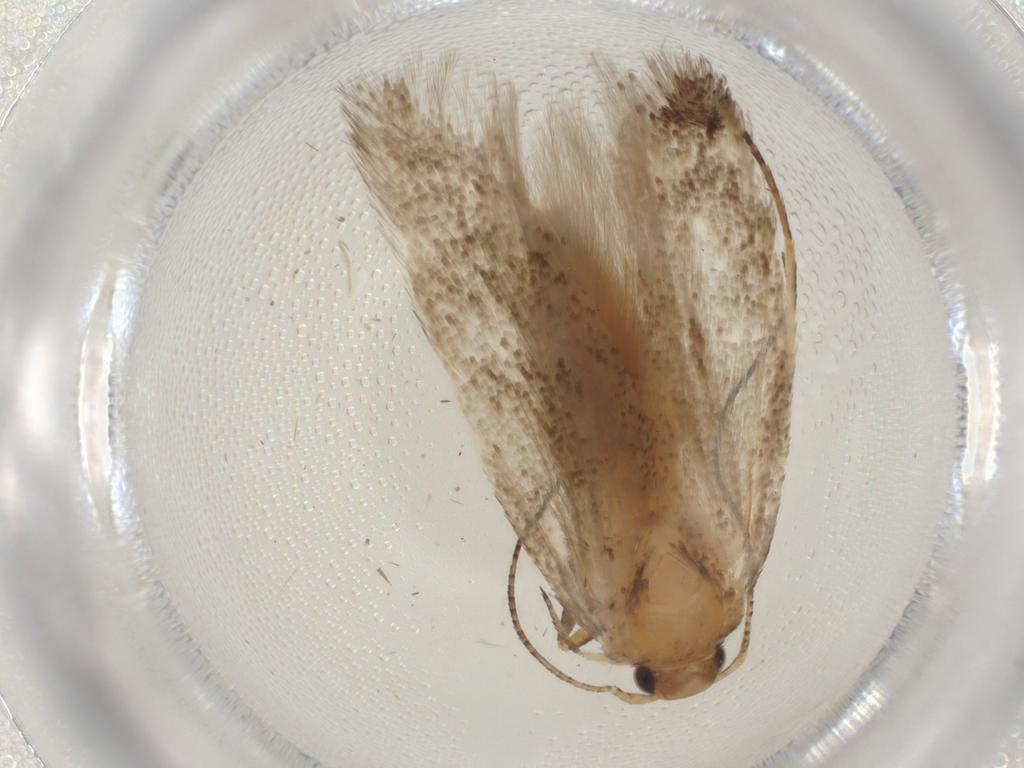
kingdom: Animalia
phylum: Arthropoda
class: Insecta
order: Lepidoptera
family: Gelechiidae
